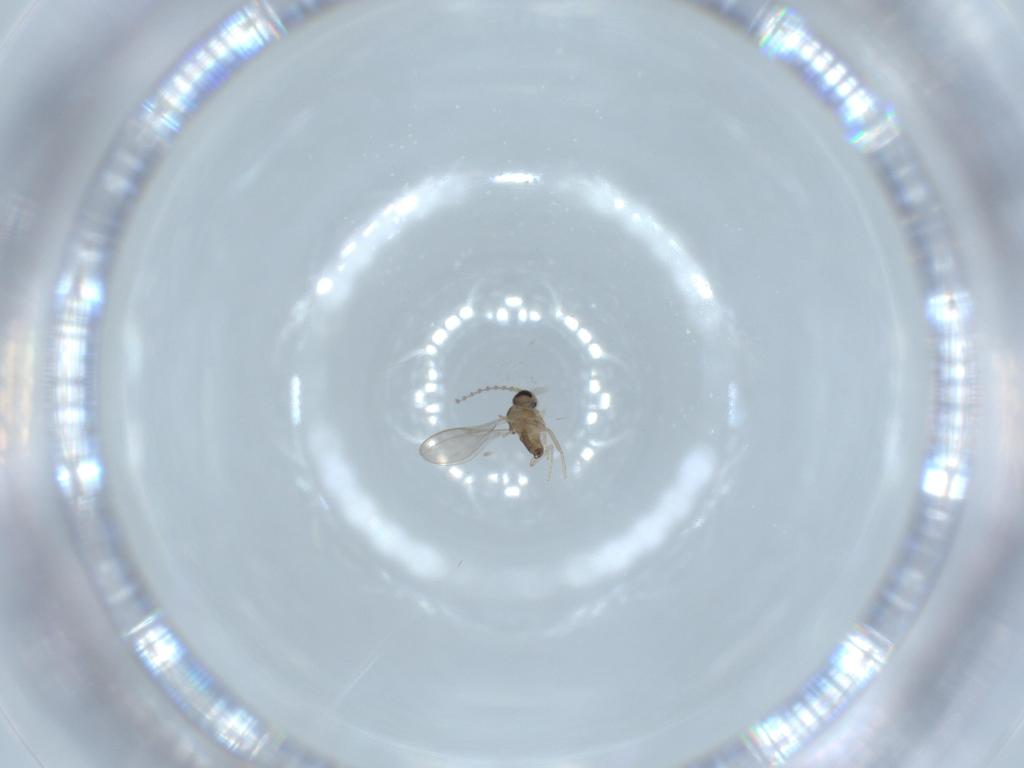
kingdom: Animalia
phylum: Arthropoda
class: Insecta
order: Diptera
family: Cecidomyiidae
